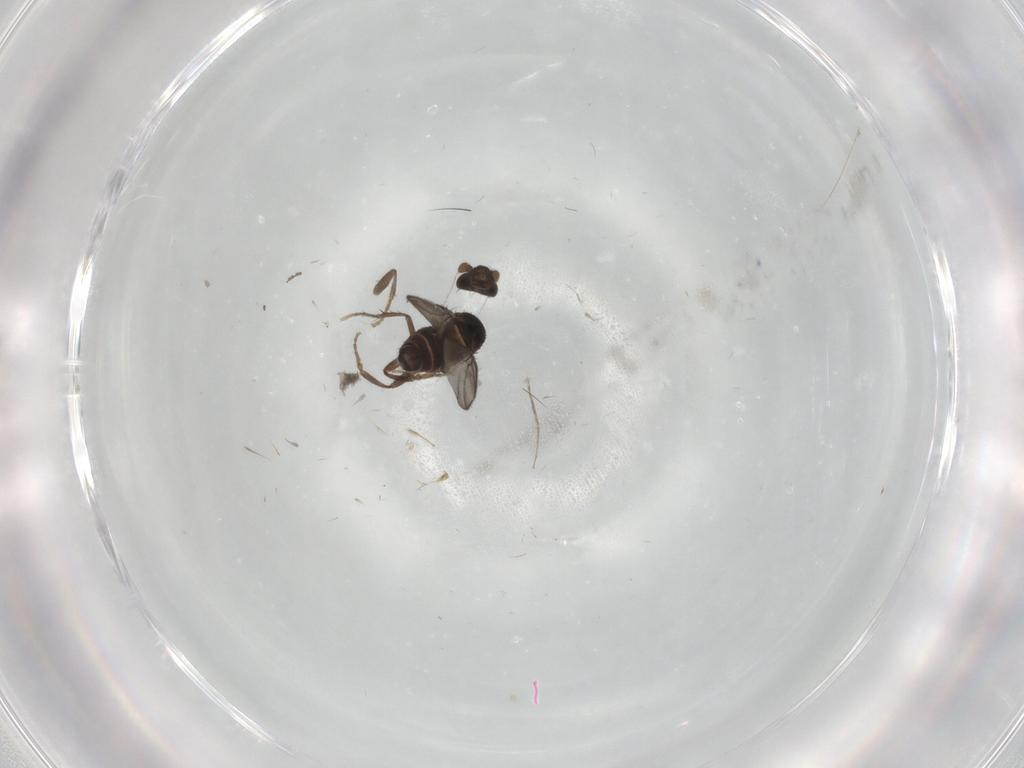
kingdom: Animalia
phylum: Arthropoda
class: Insecta
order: Diptera
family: Sphaeroceridae
